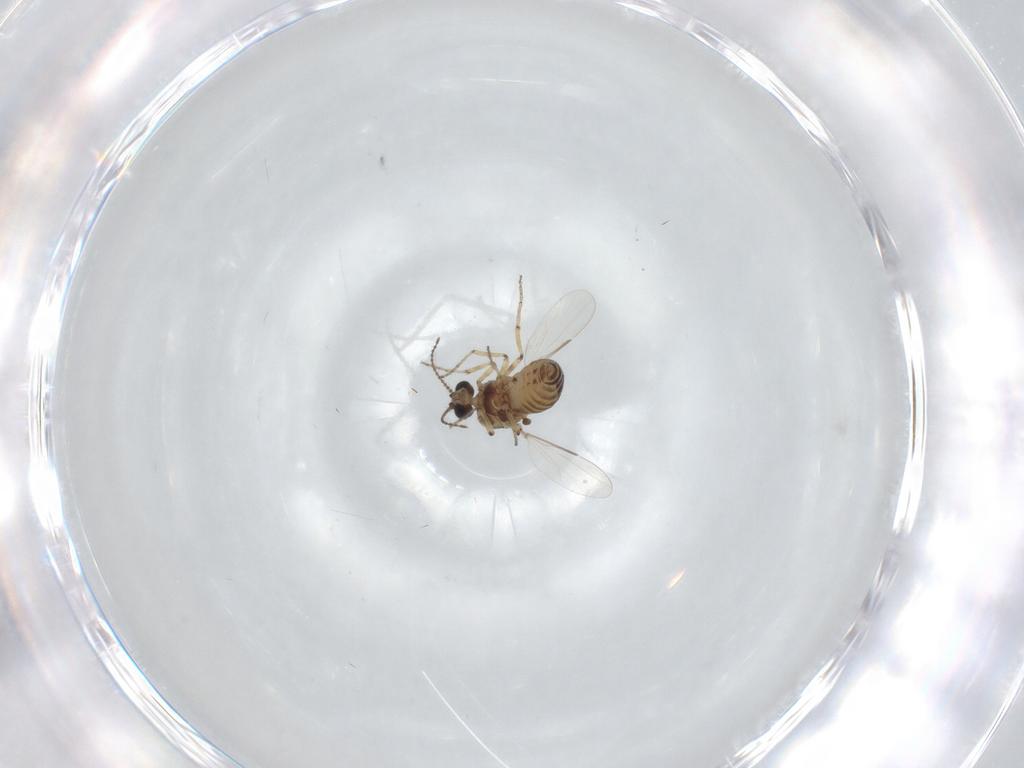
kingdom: Animalia
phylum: Arthropoda
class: Insecta
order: Diptera
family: Ceratopogonidae
